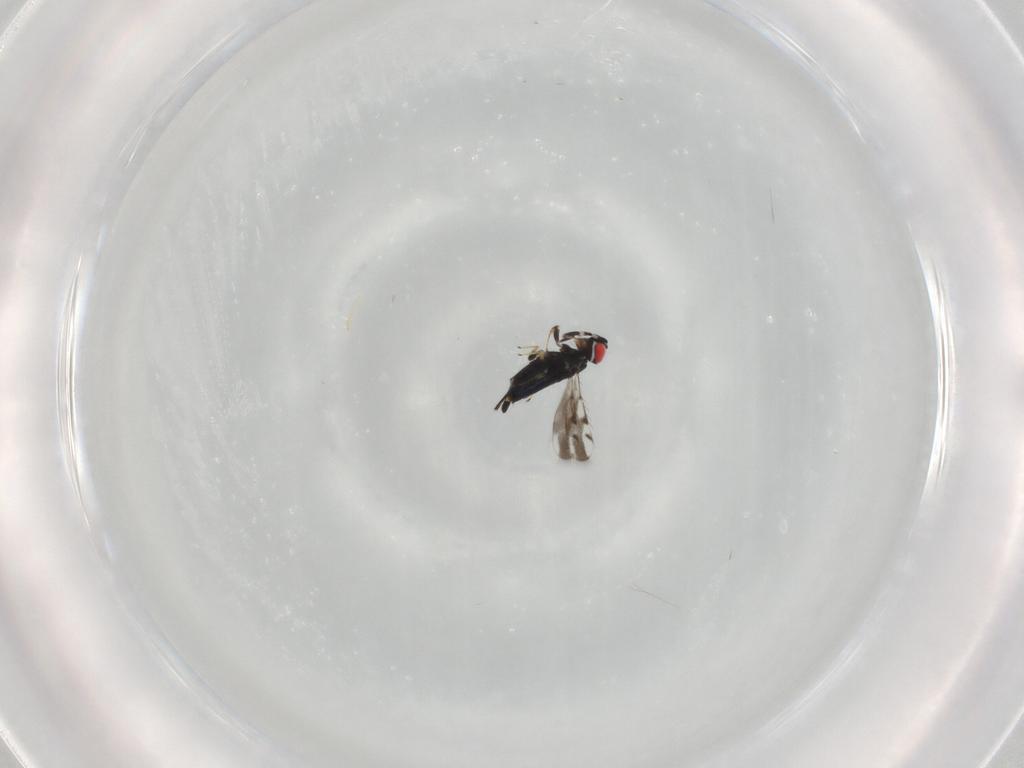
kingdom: Animalia
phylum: Arthropoda
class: Insecta
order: Hymenoptera
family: Azotidae
